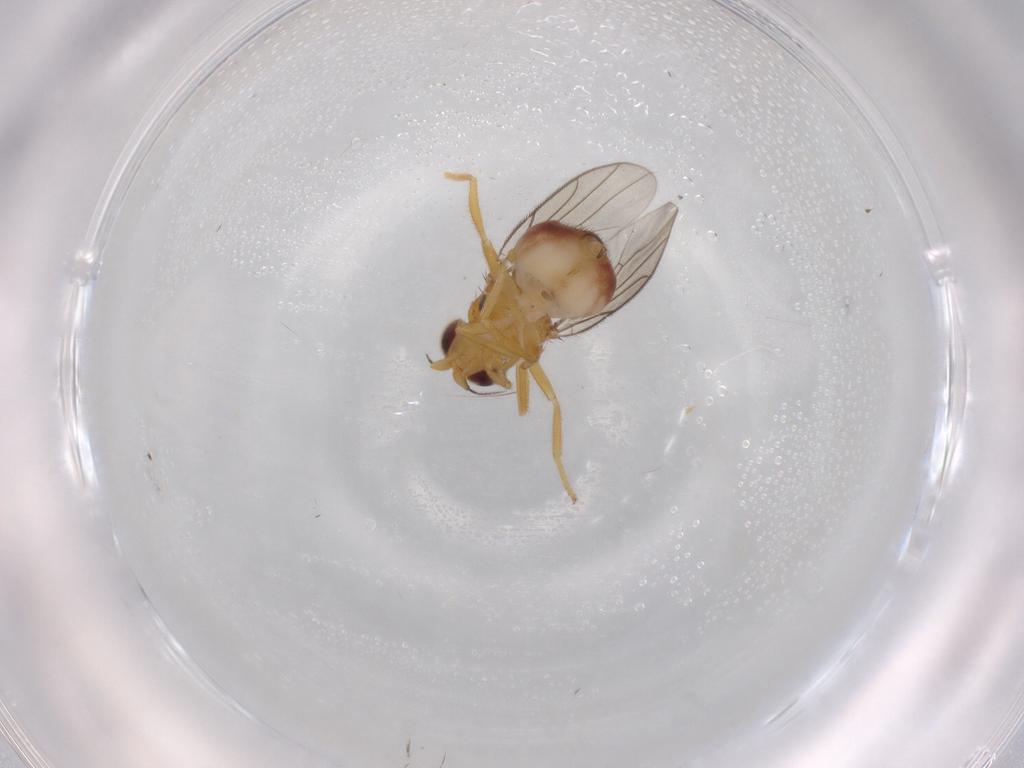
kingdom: Animalia
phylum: Arthropoda
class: Insecta
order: Diptera
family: Chloropidae
